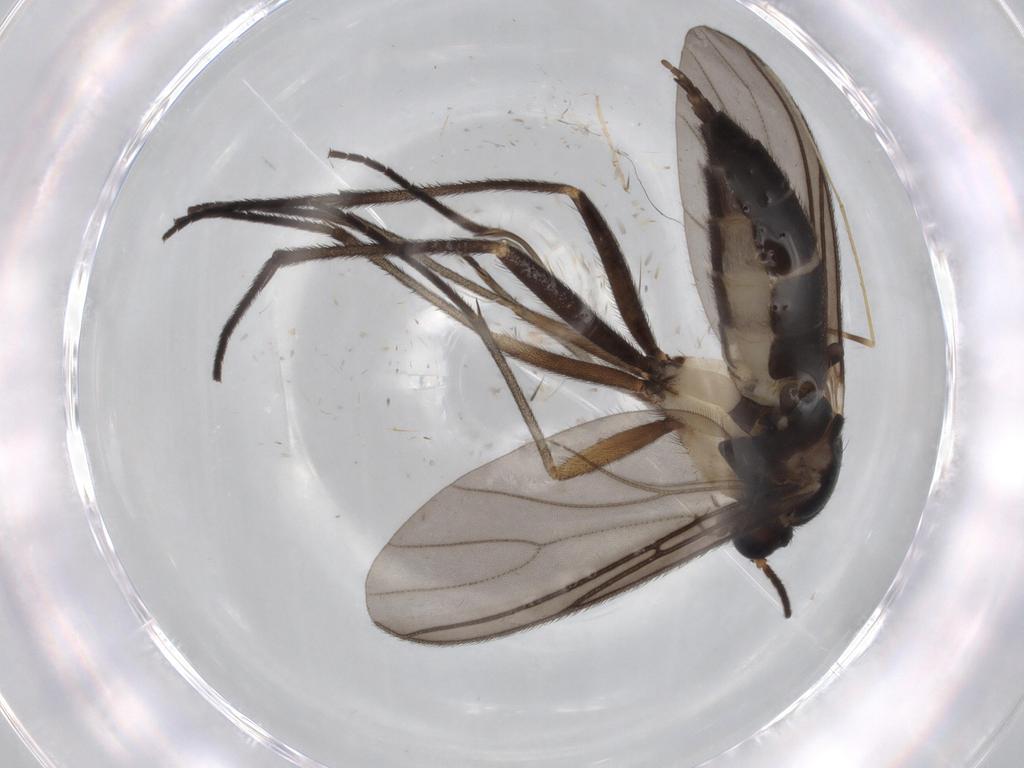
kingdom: Animalia
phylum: Arthropoda
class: Insecta
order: Diptera
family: Sciaridae
